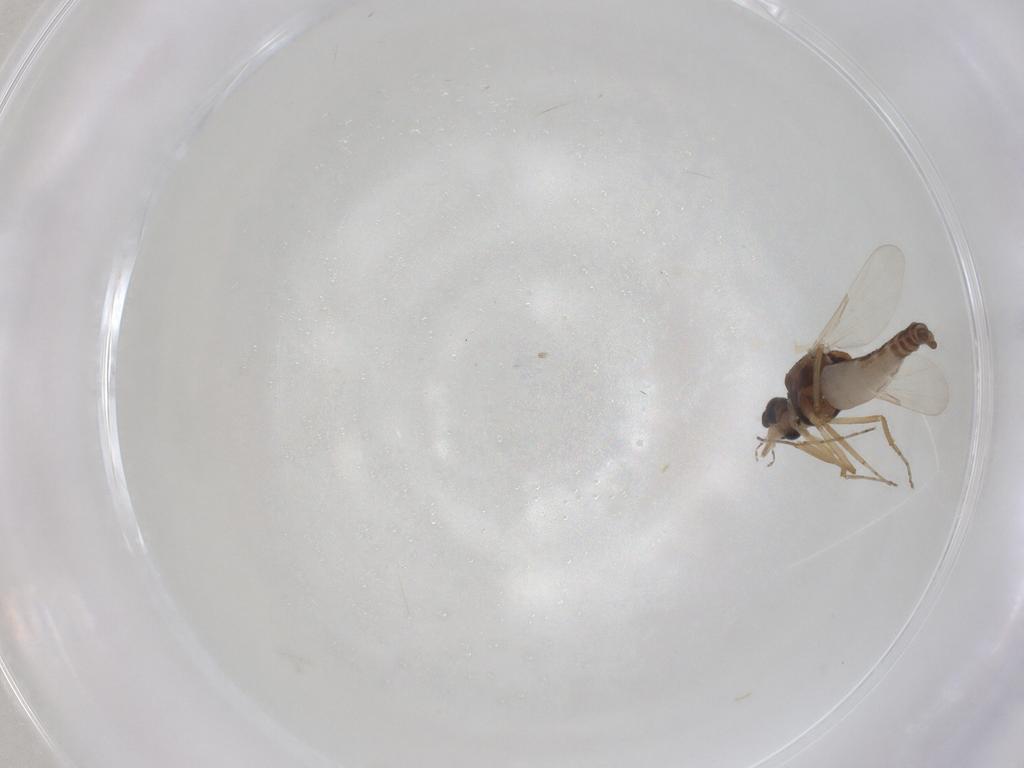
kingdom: Animalia
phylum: Arthropoda
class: Insecta
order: Diptera
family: Ceratopogonidae
